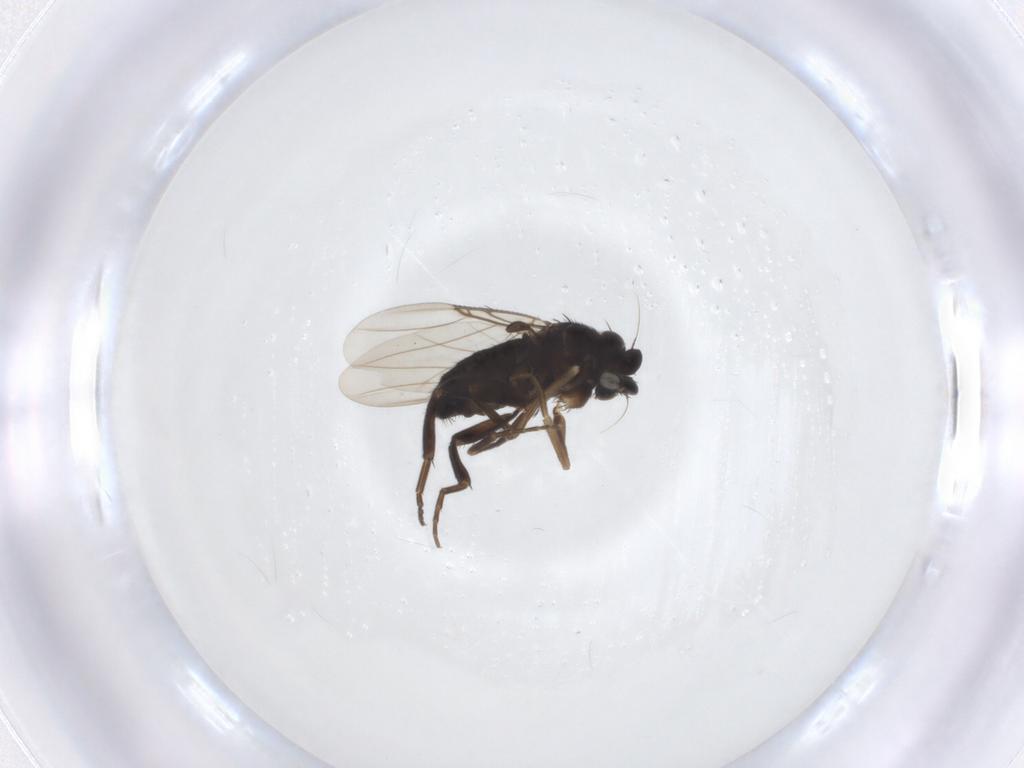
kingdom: Animalia
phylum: Arthropoda
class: Insecta
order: Diptera
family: Phoridae
